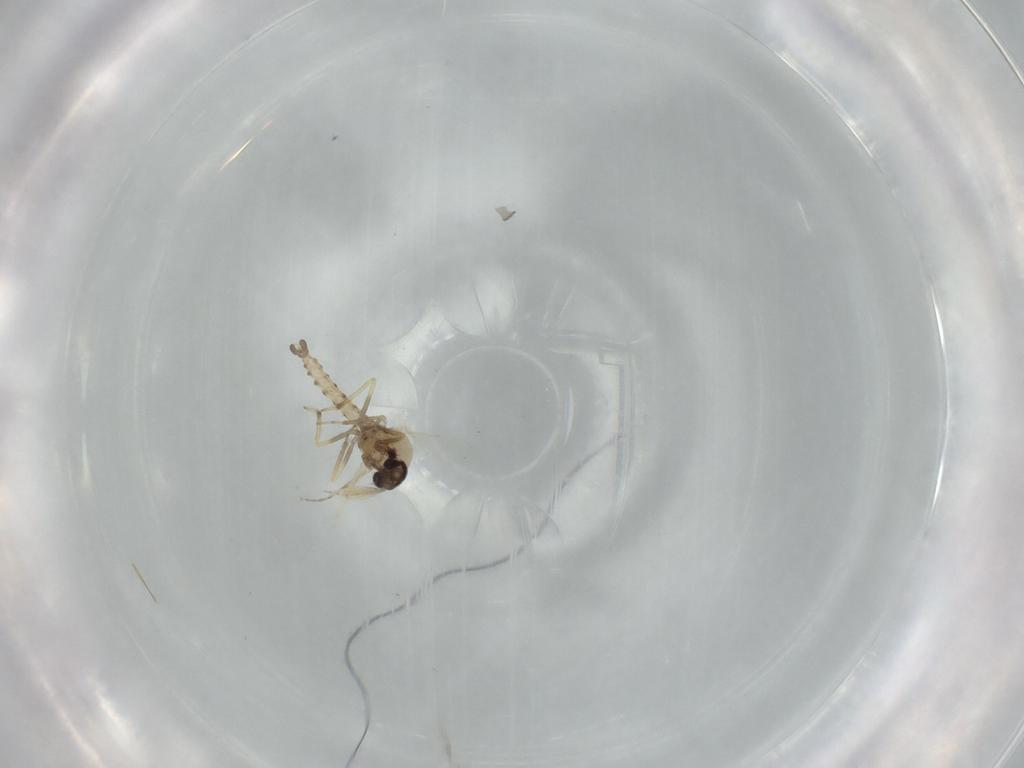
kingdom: Animalia
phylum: Arthropoda
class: Insecta
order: Diptera
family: Ceratopogonidae
